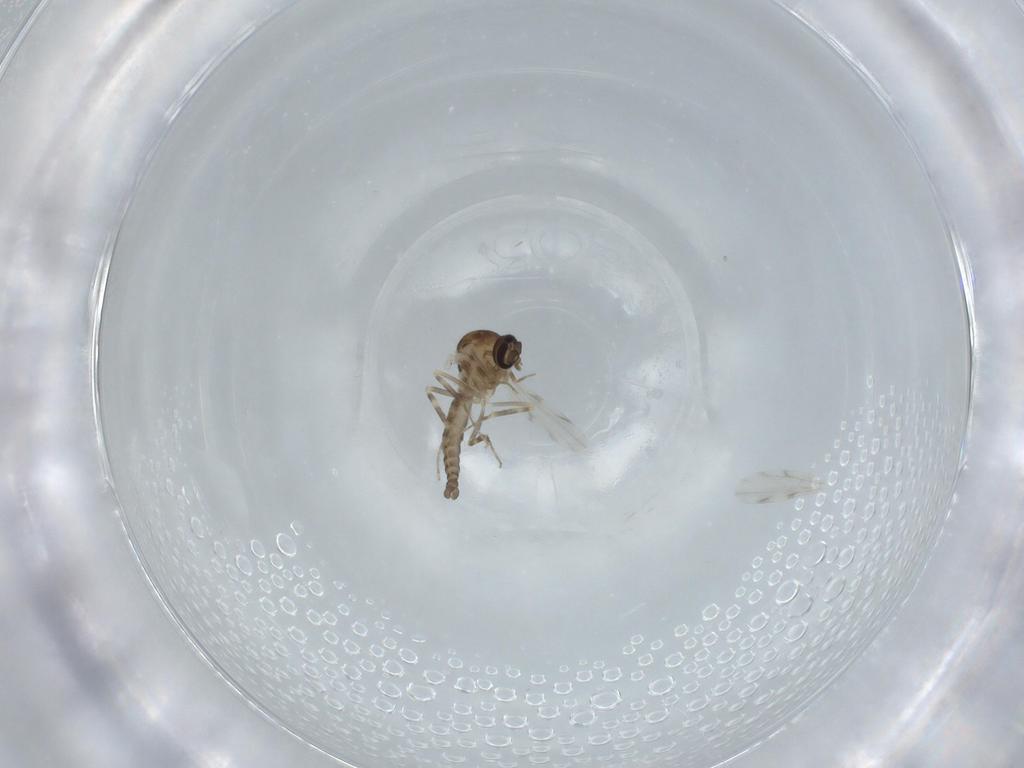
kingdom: Animalia
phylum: Arthropoda
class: Insecta
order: Diptera
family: Ceratopogonidae
